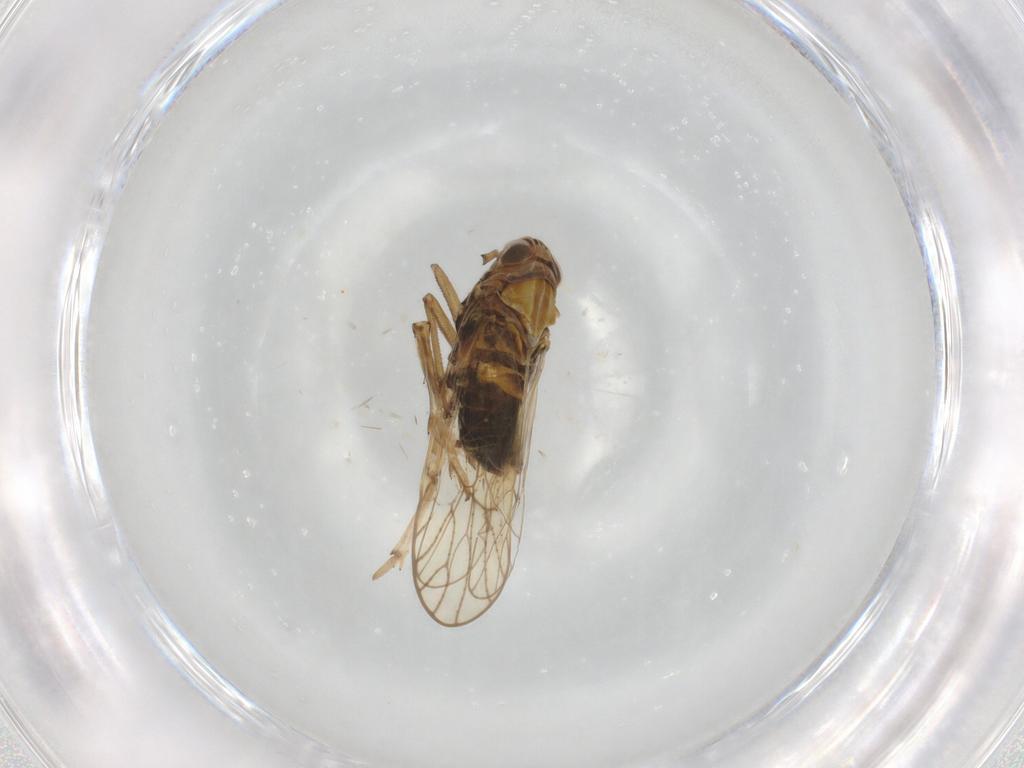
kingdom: Animalia
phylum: Arthropoda
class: Insecta
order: Hemiptera
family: Delphacidae
